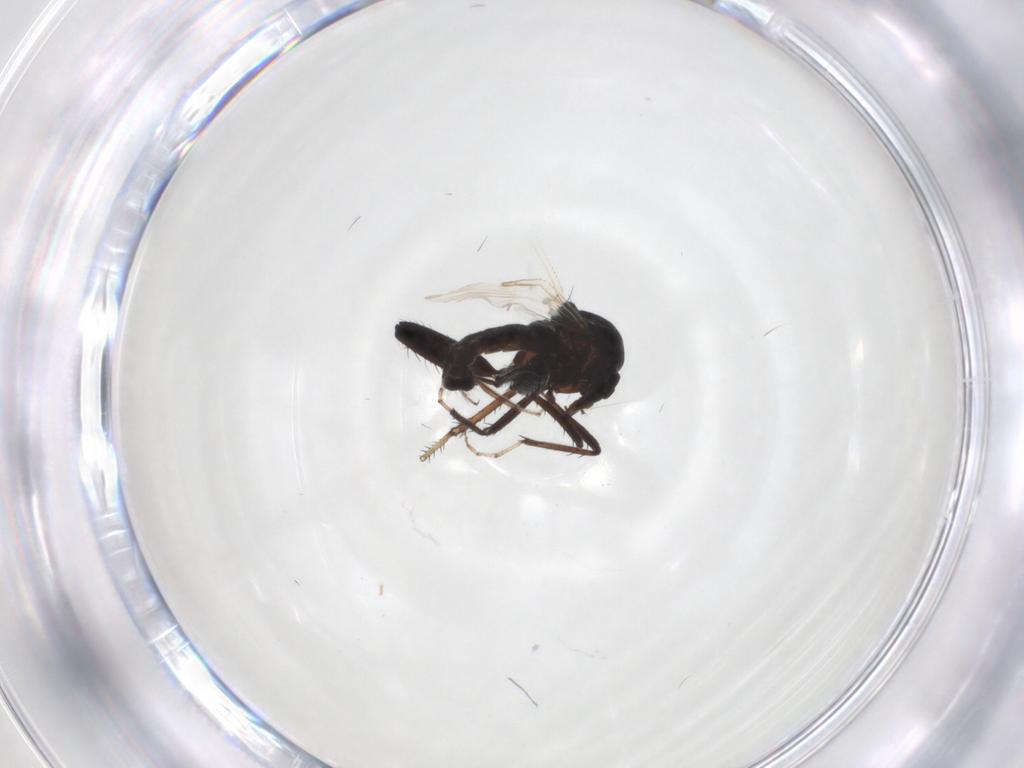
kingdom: Animalia
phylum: Arthropoda
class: Insecta
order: Diptera
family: Ceratopogonidae
